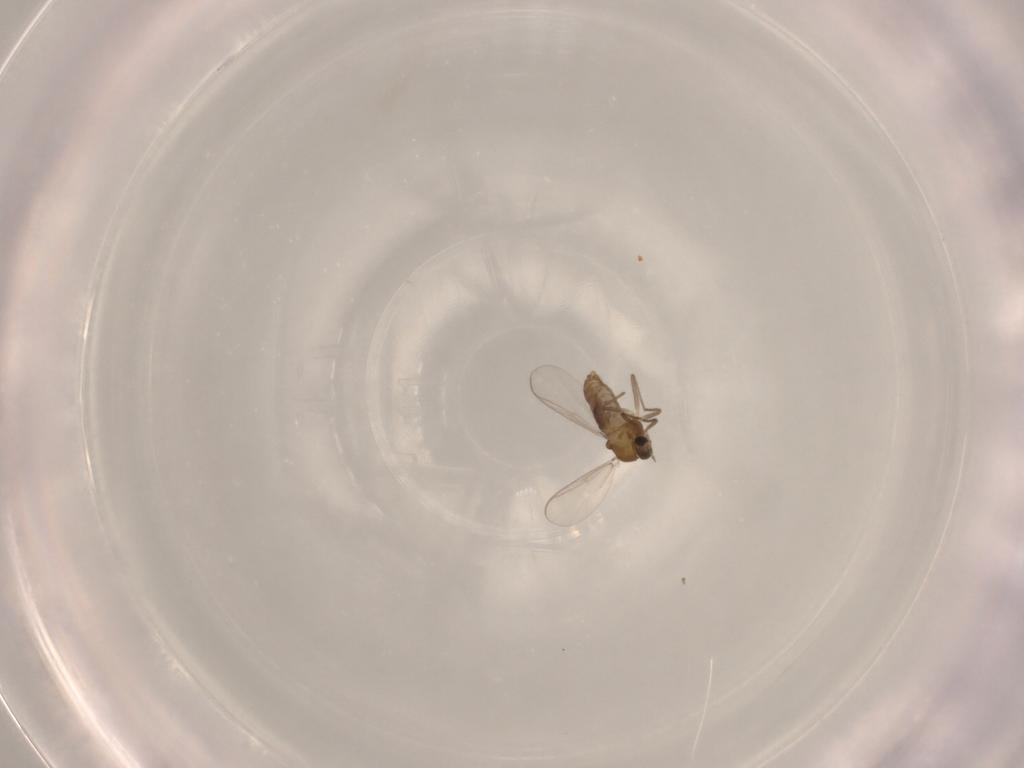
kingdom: Animalia
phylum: Arthropoda
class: Insecta
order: Diptera
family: Chironomidae
